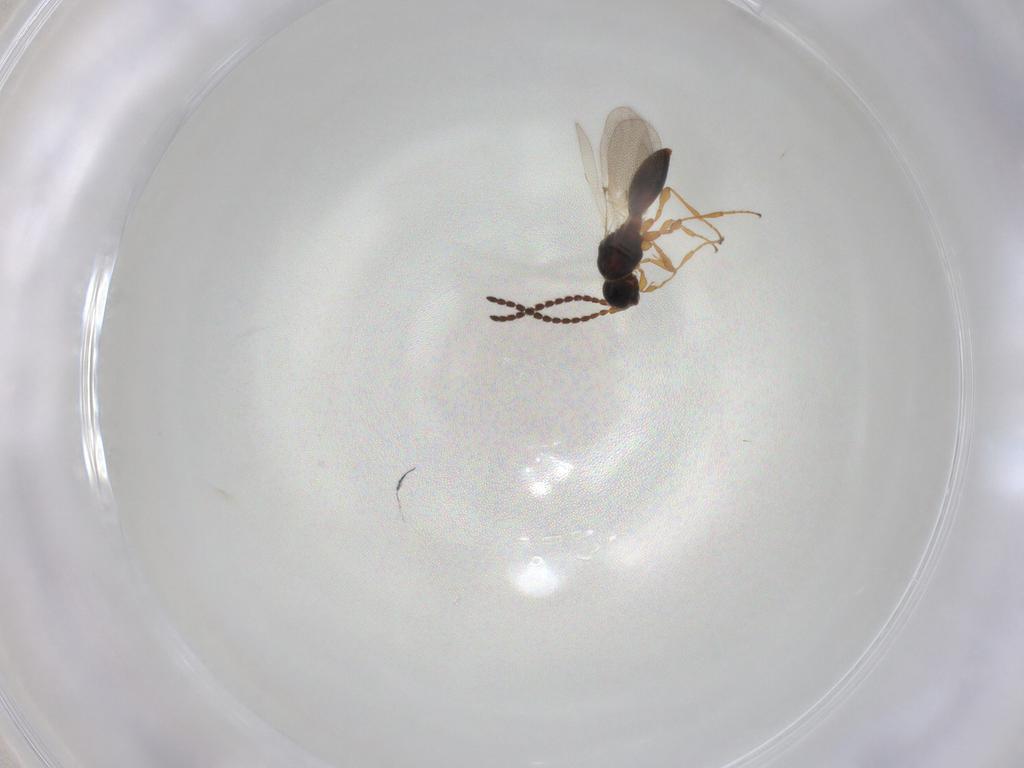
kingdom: Animalia
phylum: Arthropoda
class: Insecta
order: Hymenoptera
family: Diapriidae
